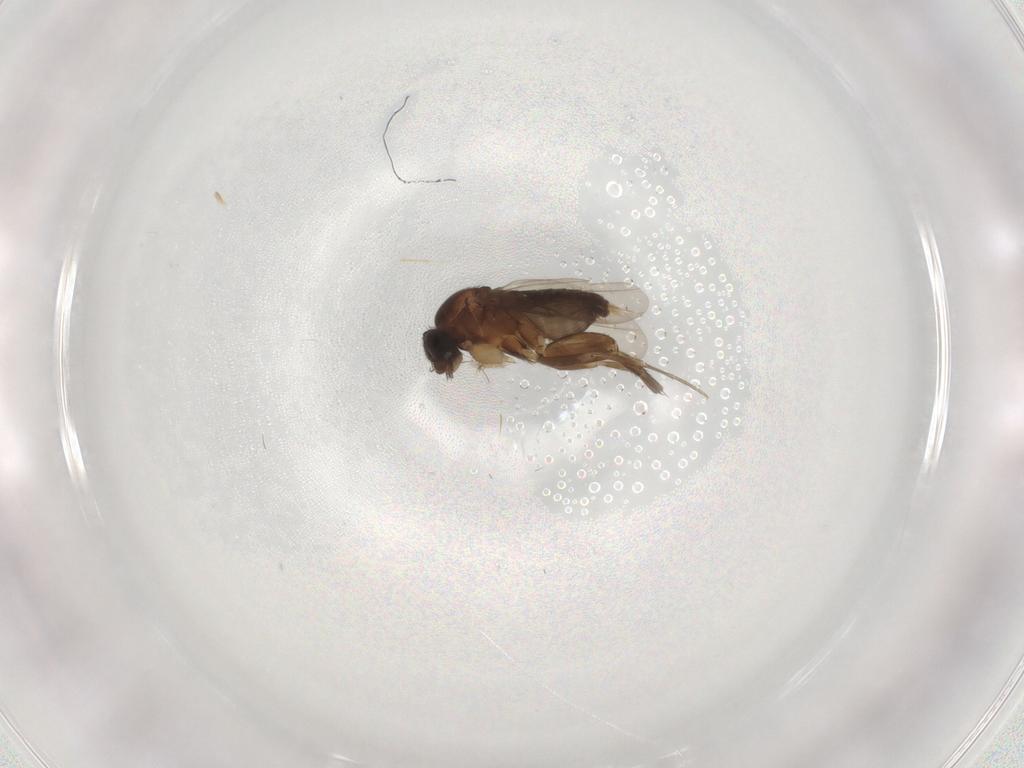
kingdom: Animalia
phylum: Arthropoda
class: Insecta
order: Diptera
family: Phoridae
